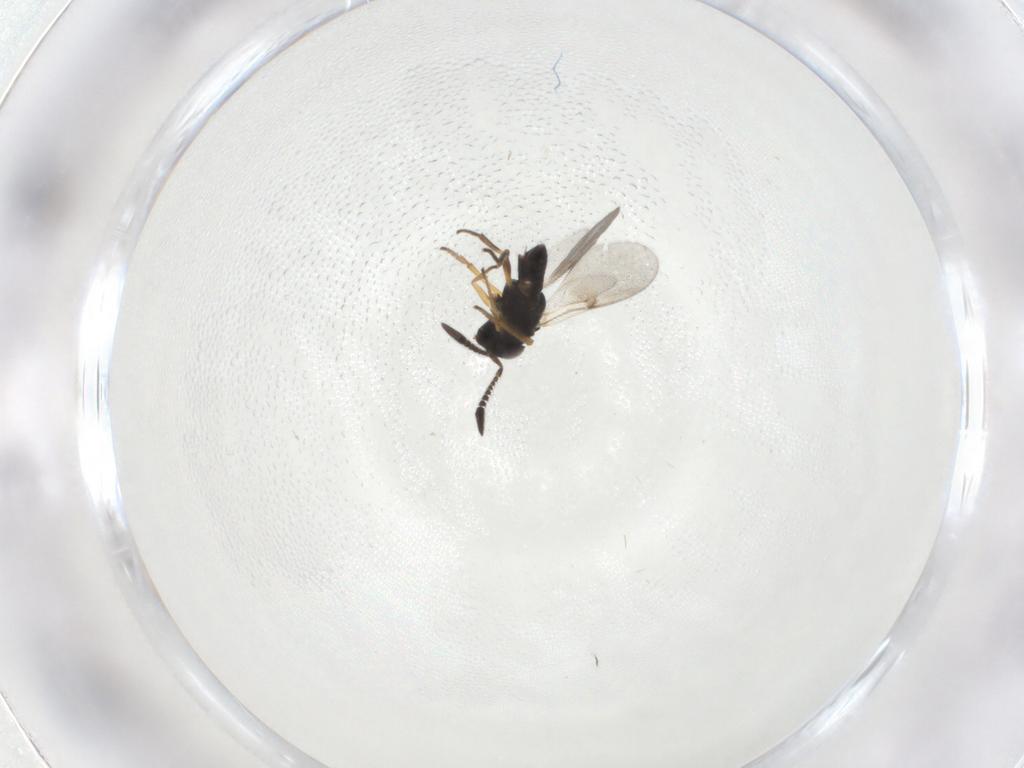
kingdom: Animalia
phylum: Arthropoda
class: Insecta
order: Hymenoptera
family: Encyrtidae
